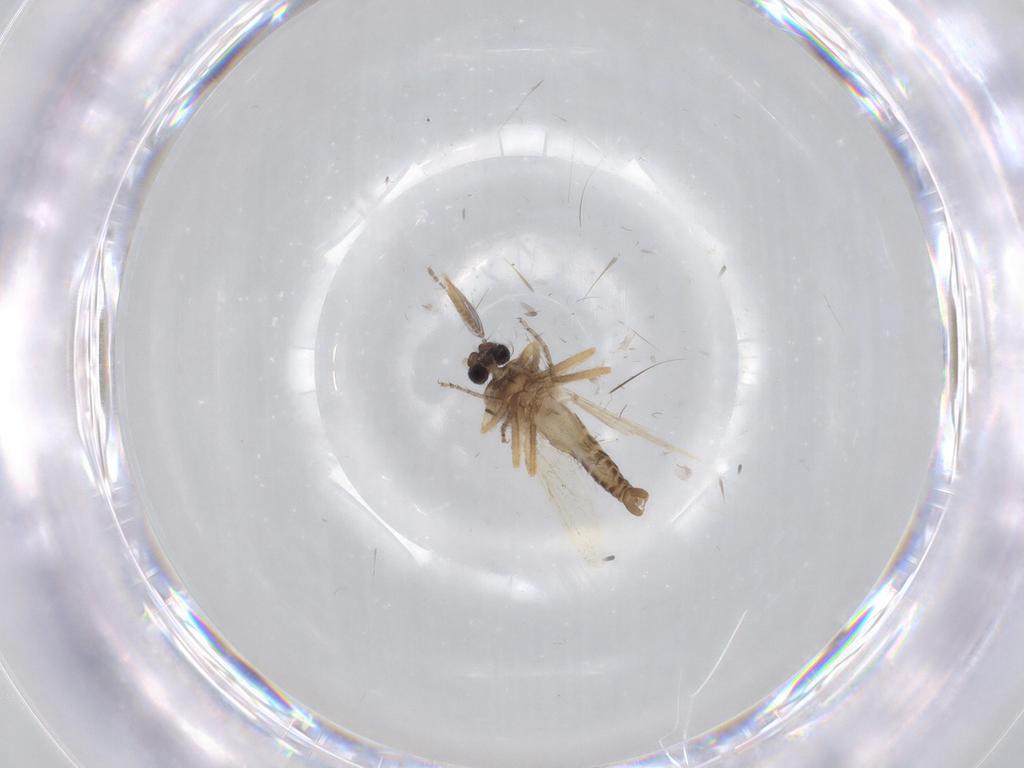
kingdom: Animalia
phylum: Arthropoda
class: Insecta
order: Diptera
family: Ceratopogonidae
